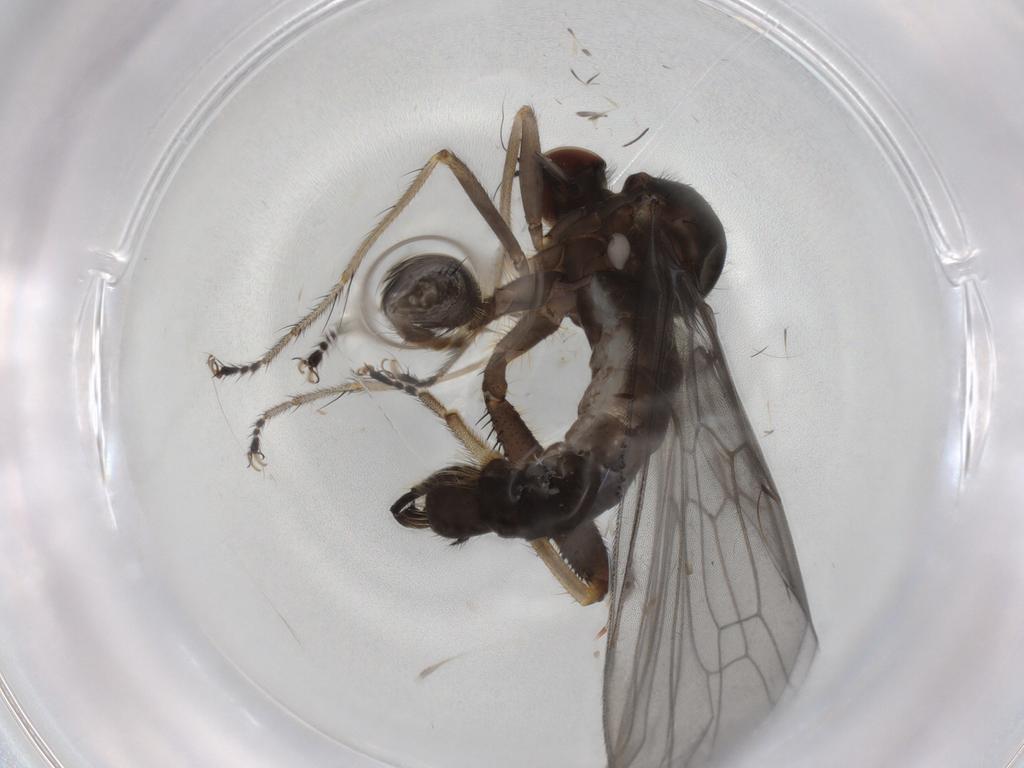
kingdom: Animalia
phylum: Arthropoda
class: Insecta
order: Diptera
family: Hybotidae
